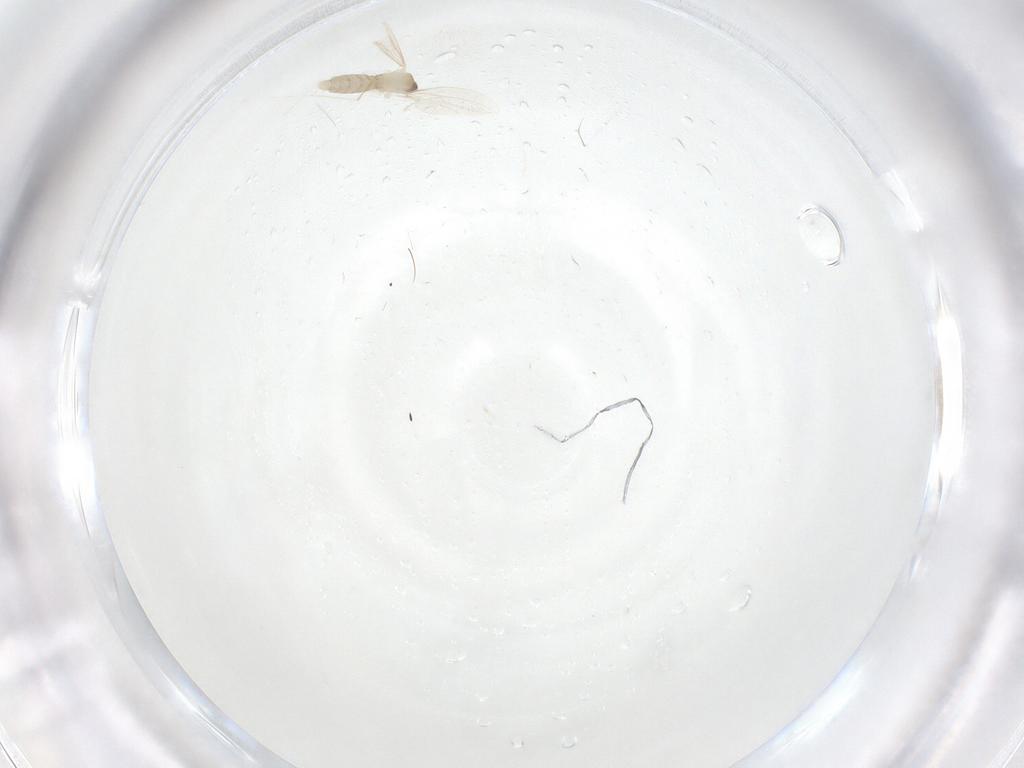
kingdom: Animalia
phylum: Arthropoda
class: Insecta
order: Diptera
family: Cecidomyiidae
